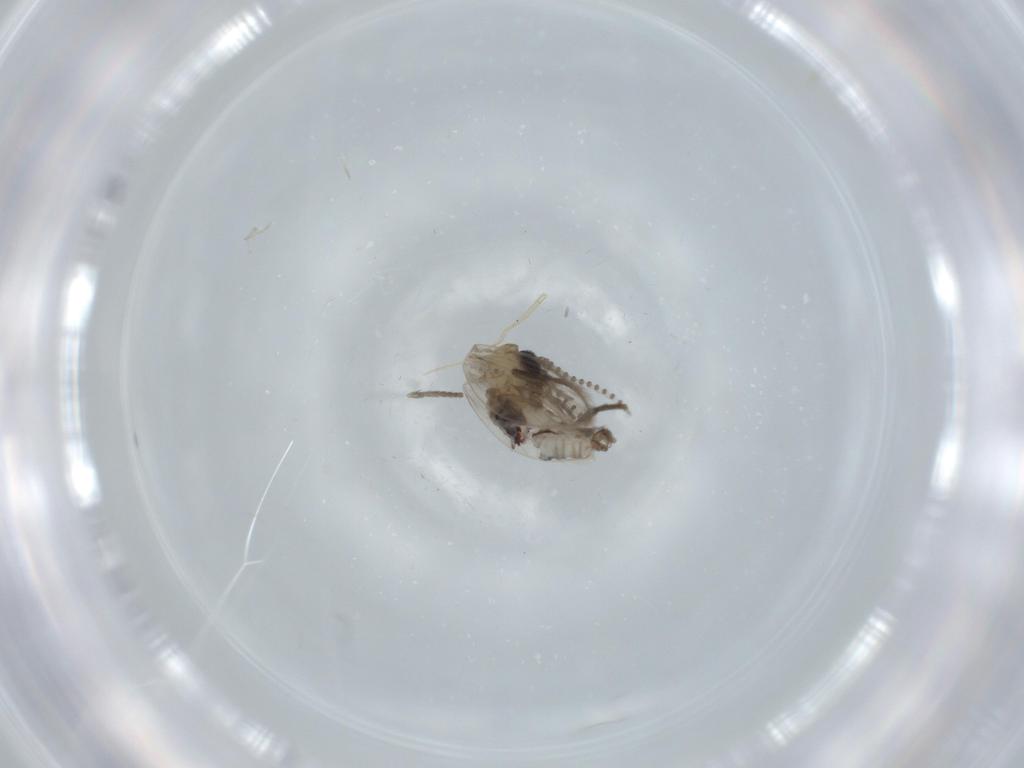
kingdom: Animalia
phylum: Arthropoda
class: Insecta
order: Diptera
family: Psychodidae
